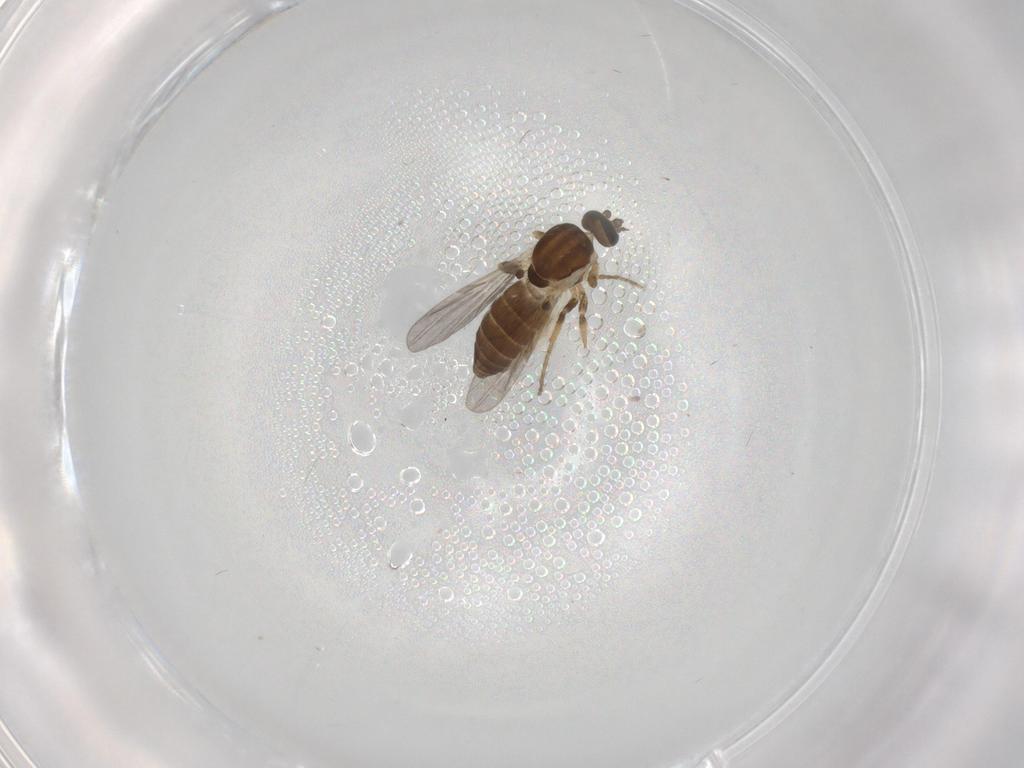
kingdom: Animalia
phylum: Arthropoda
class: Insecta
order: Diptera
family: Ceratopogonidae
